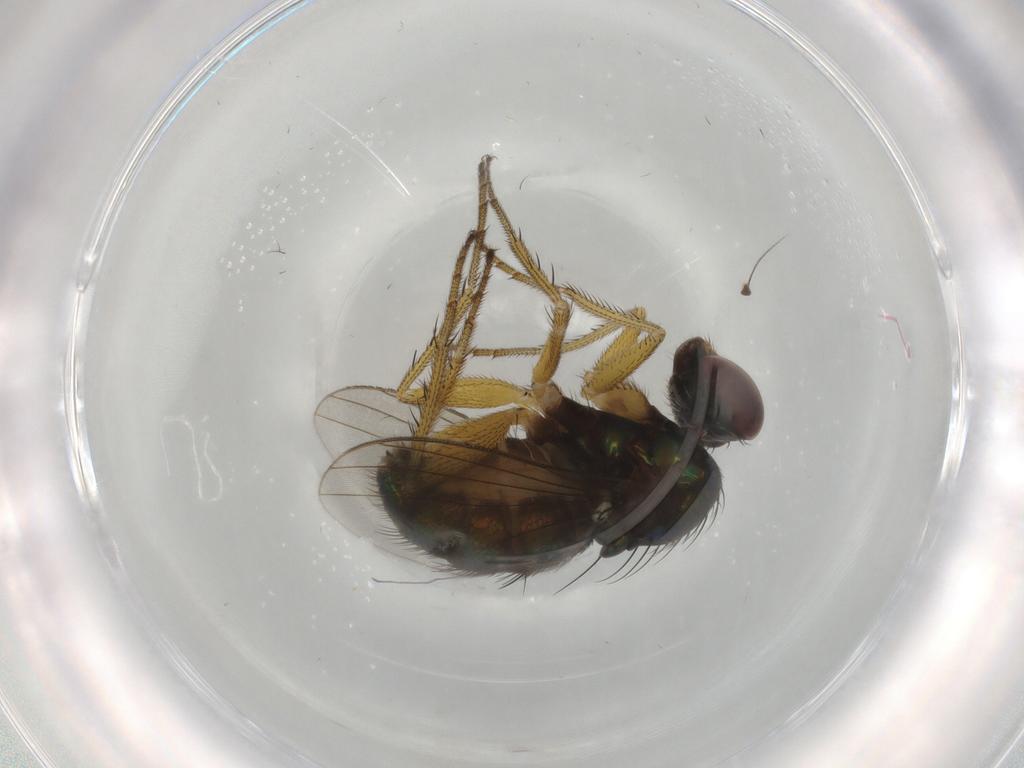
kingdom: Animalia
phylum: Arthropoda
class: Insecta
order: Diptera
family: Dolichopodidae
